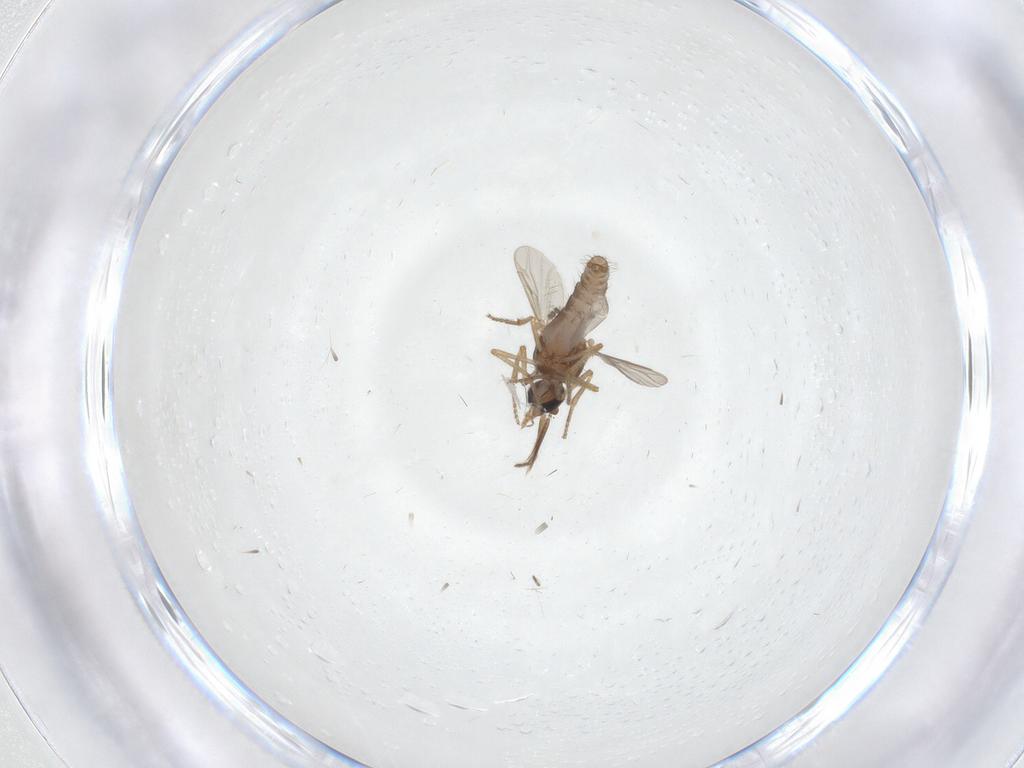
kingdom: Animalia
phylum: Arthropoda
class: Insecta
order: Diptera
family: Ceratopogonidae
